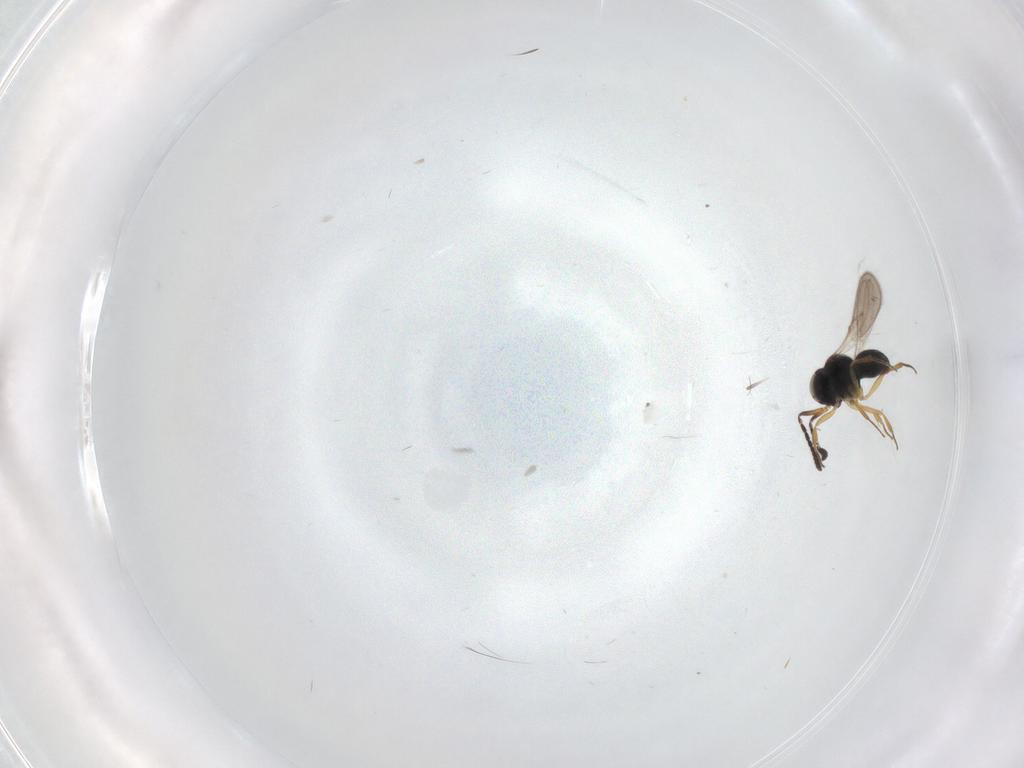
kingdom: Animalia
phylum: Arthropoda
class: Insecta
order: Hymenoptera
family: Scelionidae
